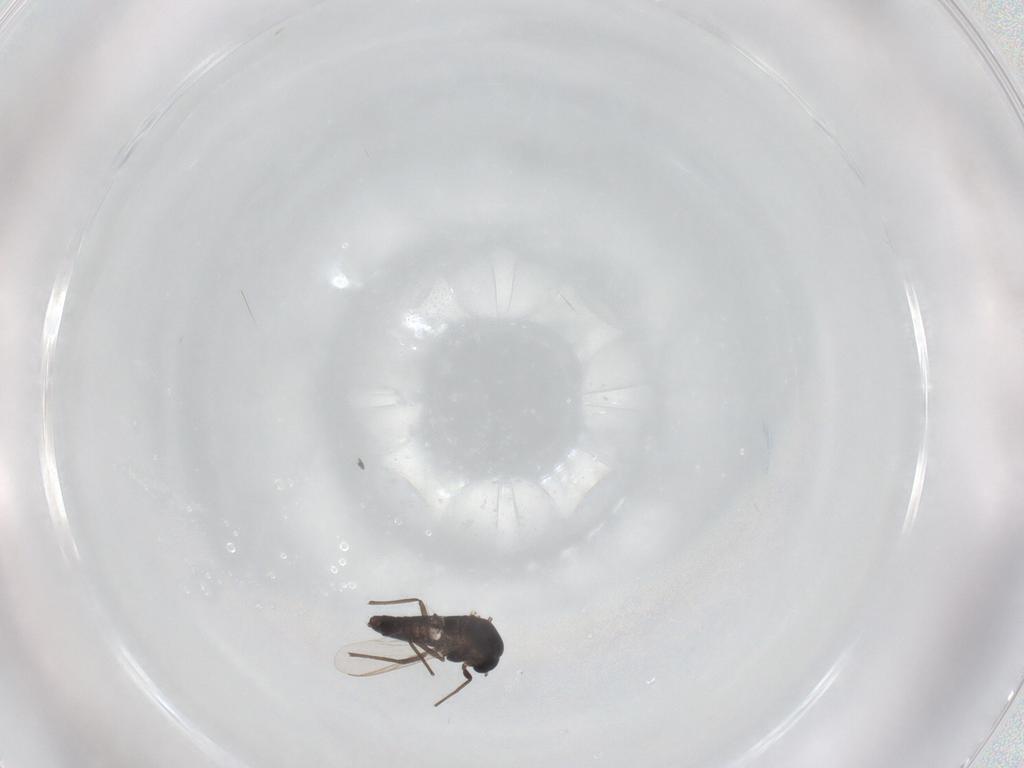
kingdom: Animalia
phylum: Arthropoda
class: Insecta
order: Diptera
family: Chironomidae
